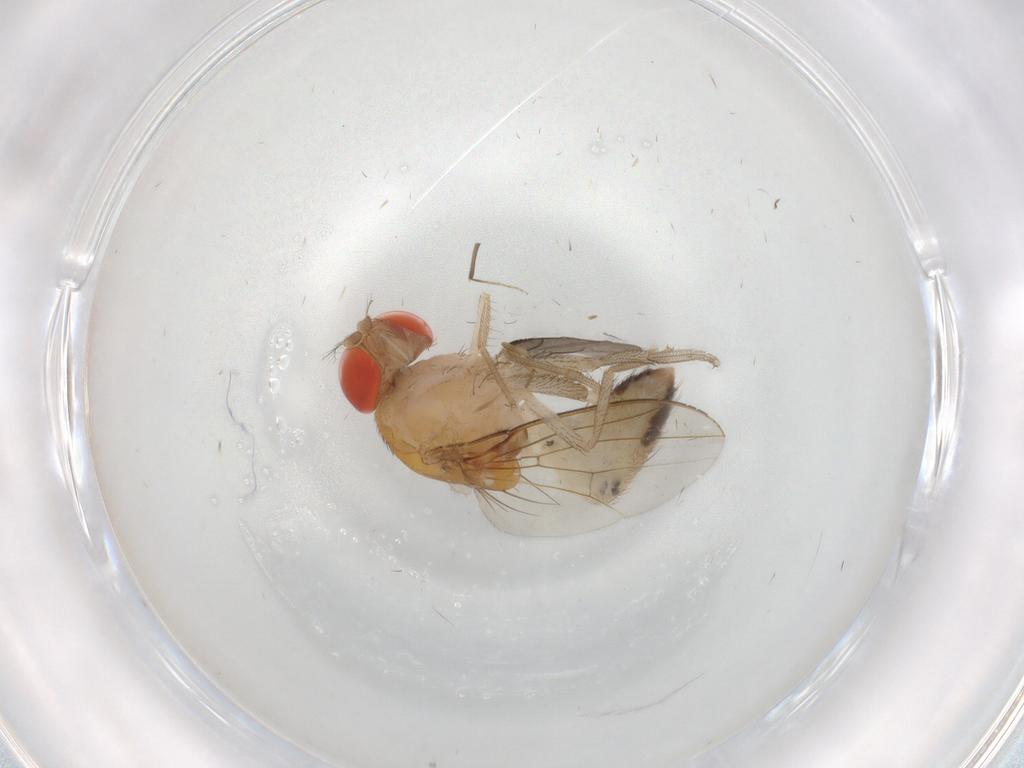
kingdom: Animalia
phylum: Arthropoda
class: Insecta
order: Diptera
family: Drosophilidae
